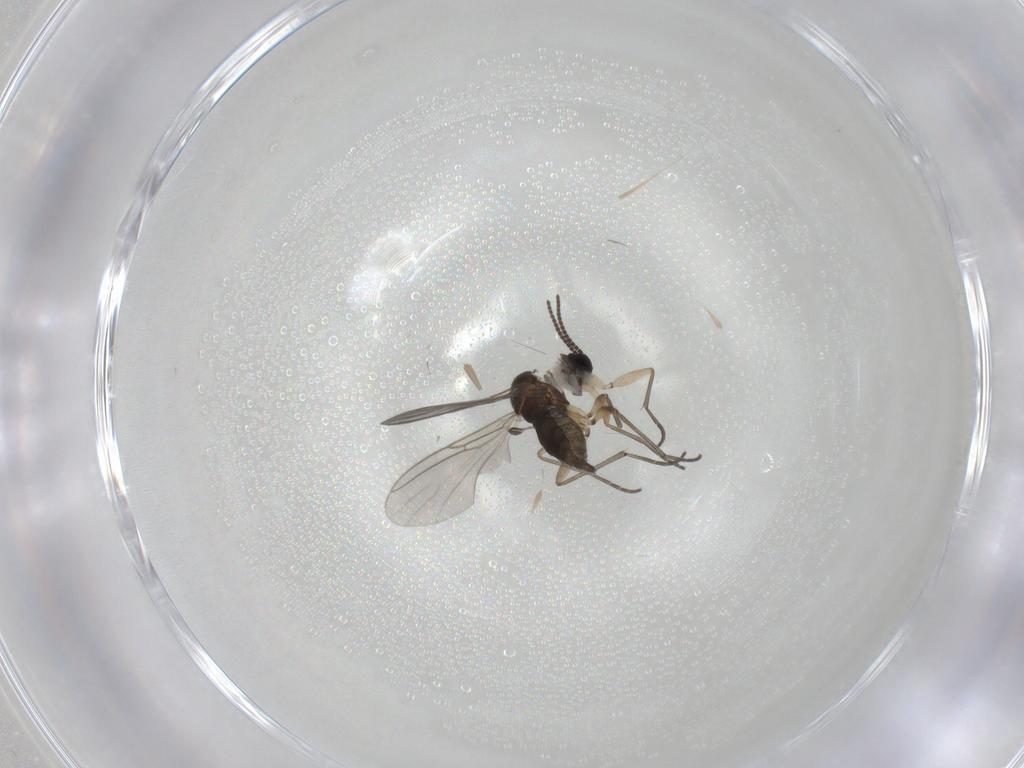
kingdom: Animalia
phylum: Arthropoda
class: Insecta
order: Diptera
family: Sciaridae
